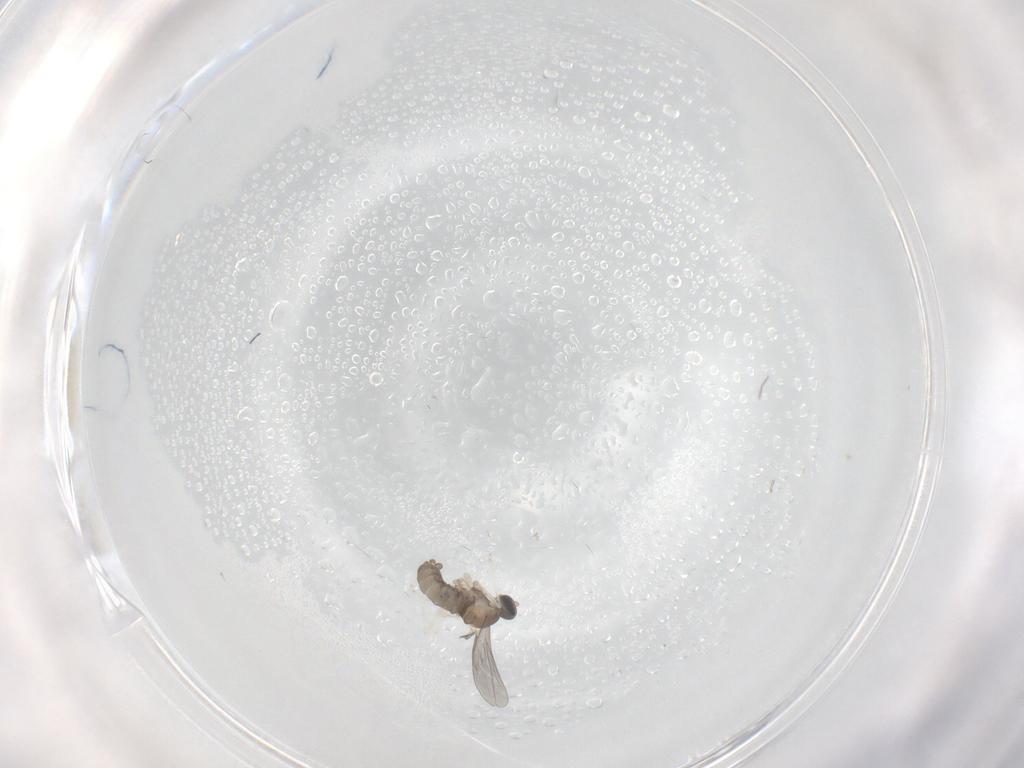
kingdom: Animalia
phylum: Arthropoda
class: Insecta
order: Diptera
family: Cecidomyiidae
